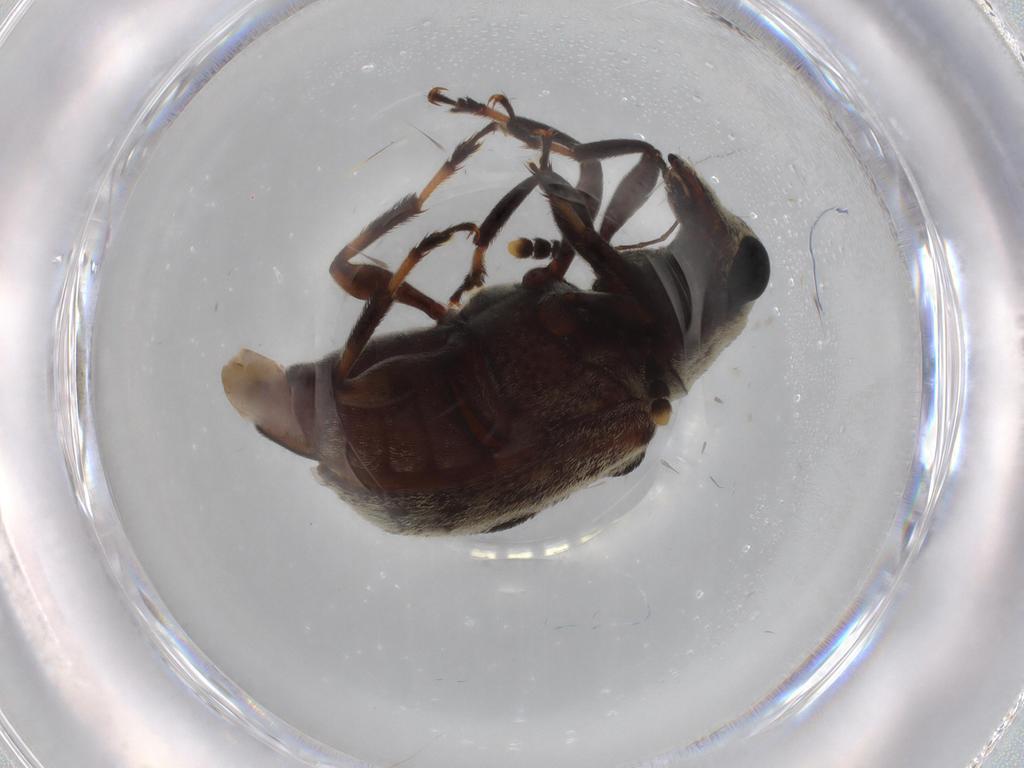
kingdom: Animalia
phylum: Arthropoda
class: Insecta
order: Coleoptera
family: Anthribidae
